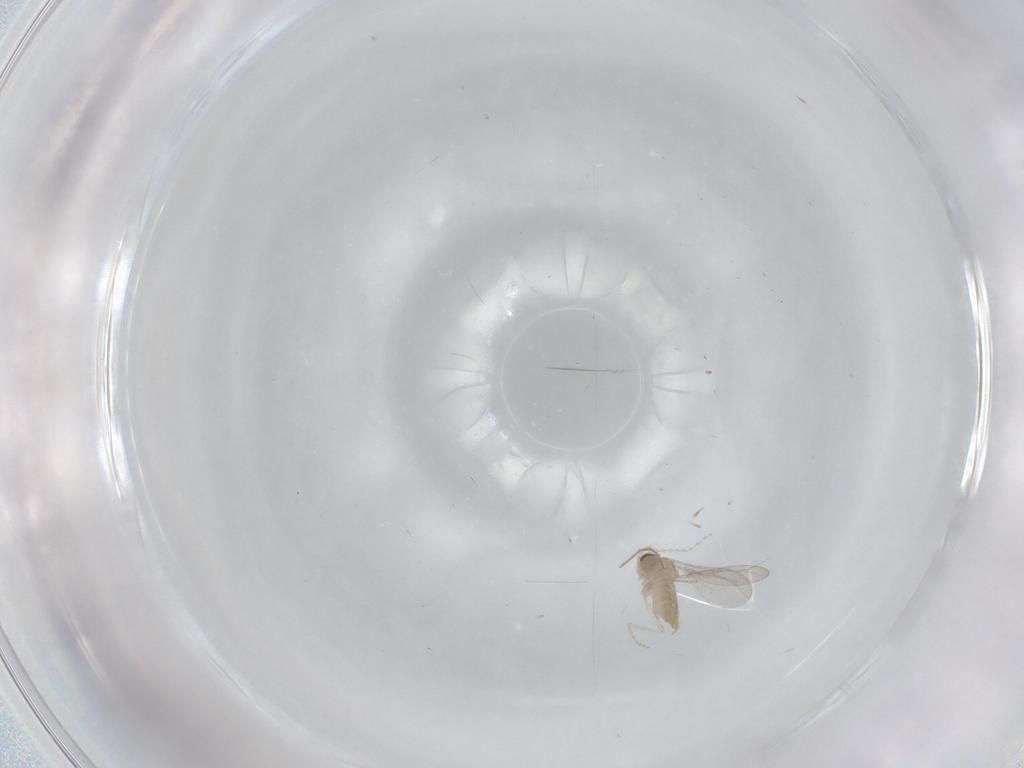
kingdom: Animalia
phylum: Arthropoda
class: Insecta
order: Diptera
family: Chironomidae
